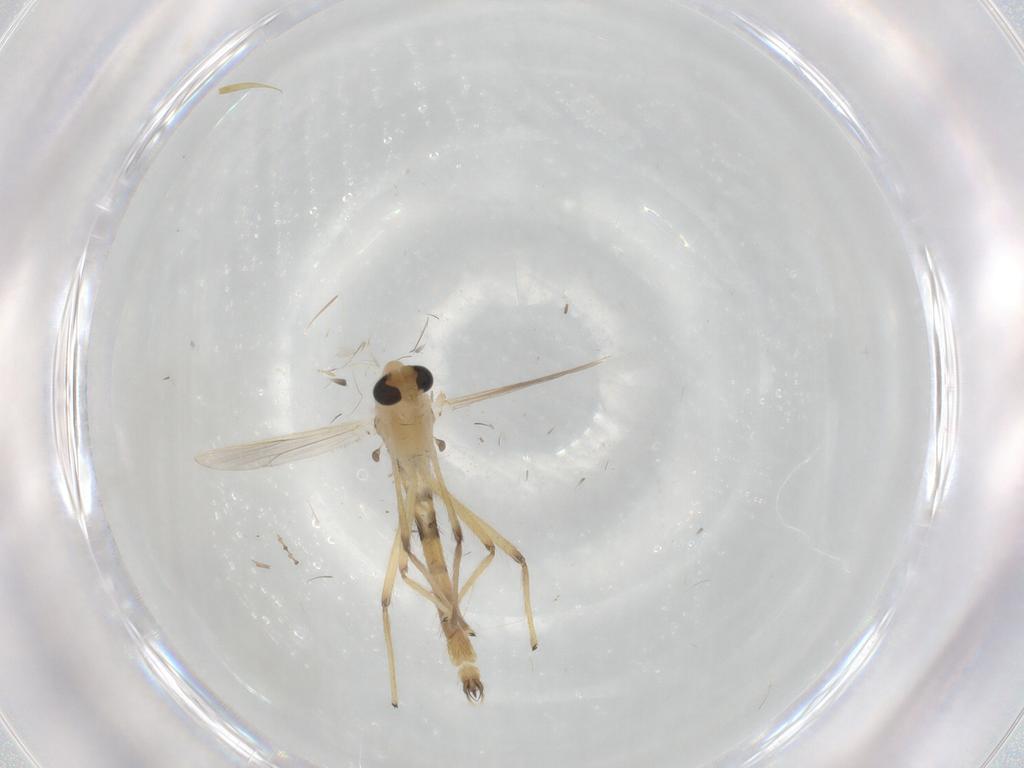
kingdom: Animalia
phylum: Arthropoda
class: Insecta
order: Diptera
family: Chironomidae
